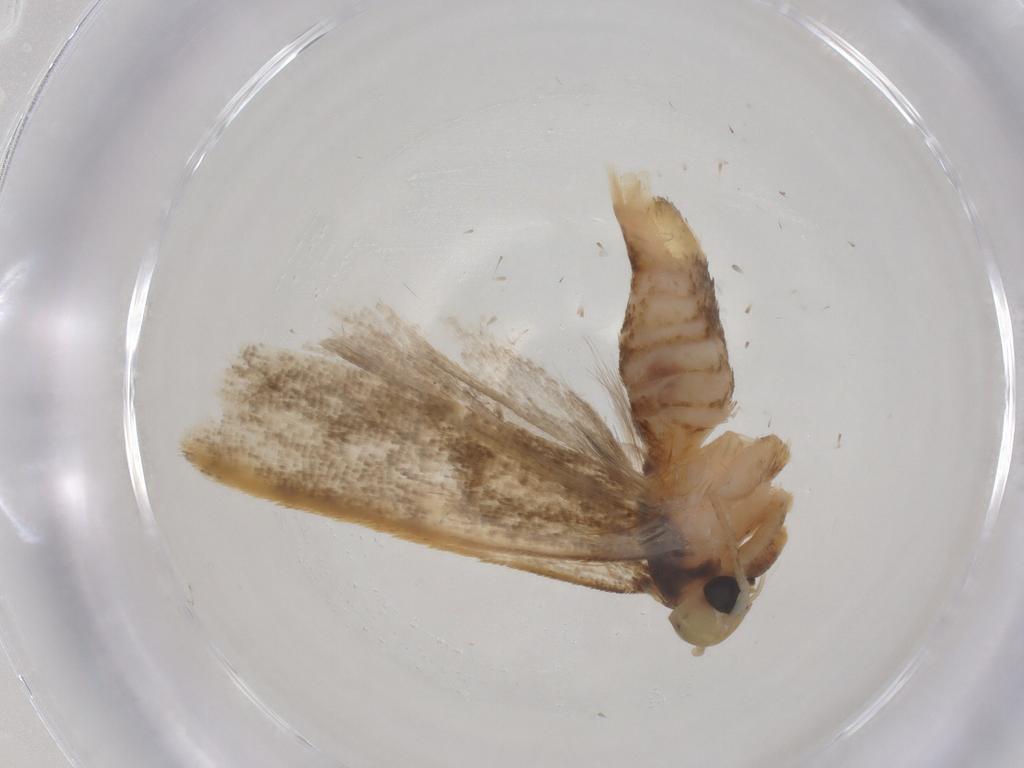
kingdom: Animalia
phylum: Arthropoda
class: Insecta
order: Lepidoptera
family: Gelechiidae
